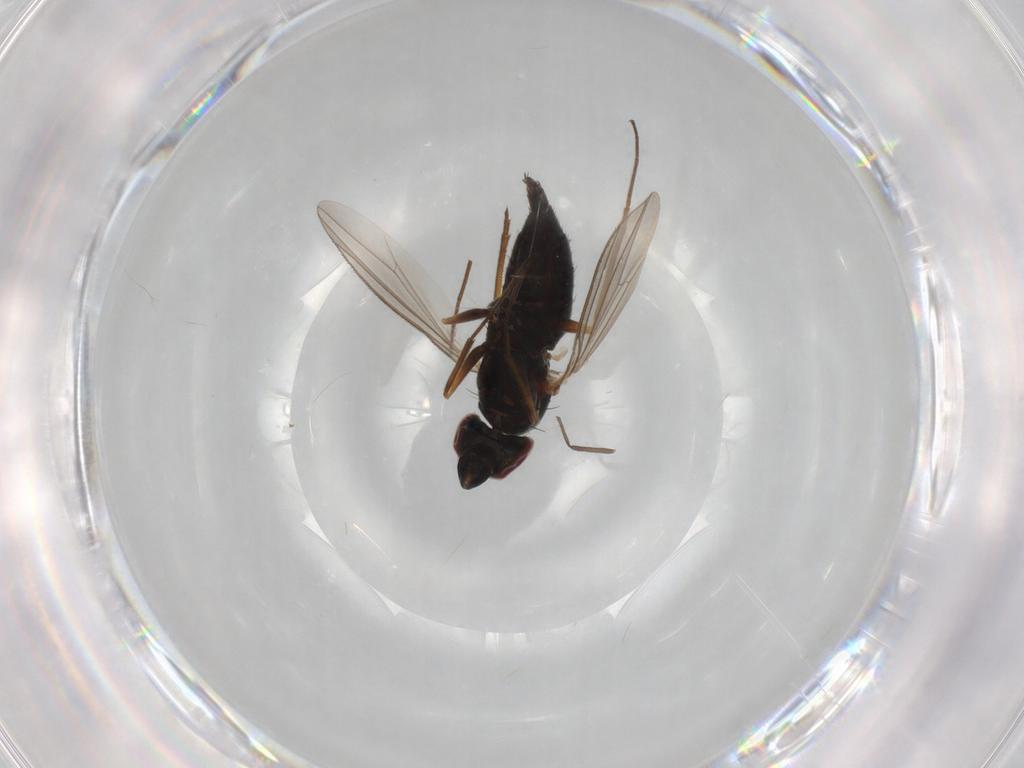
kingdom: Animalia
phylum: Arthropoda
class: Insecta
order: Diptera
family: Dolichopodidae
